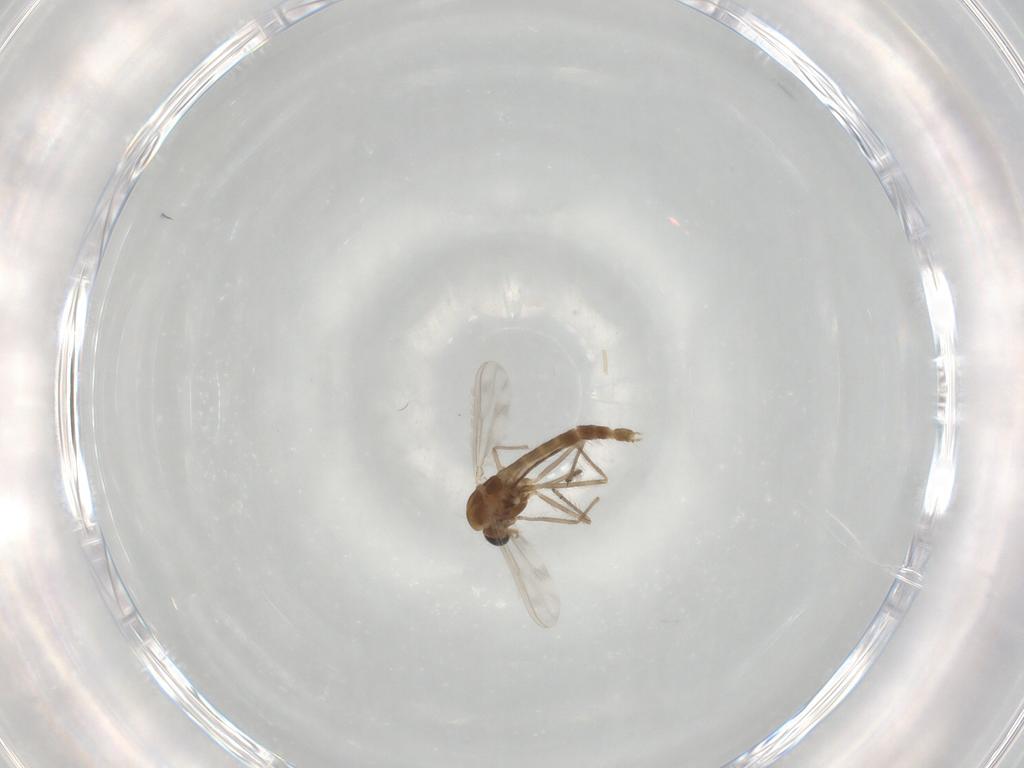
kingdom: Animalia
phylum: Arthropoda
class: Insecta
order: Diptera
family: Chironomidae
